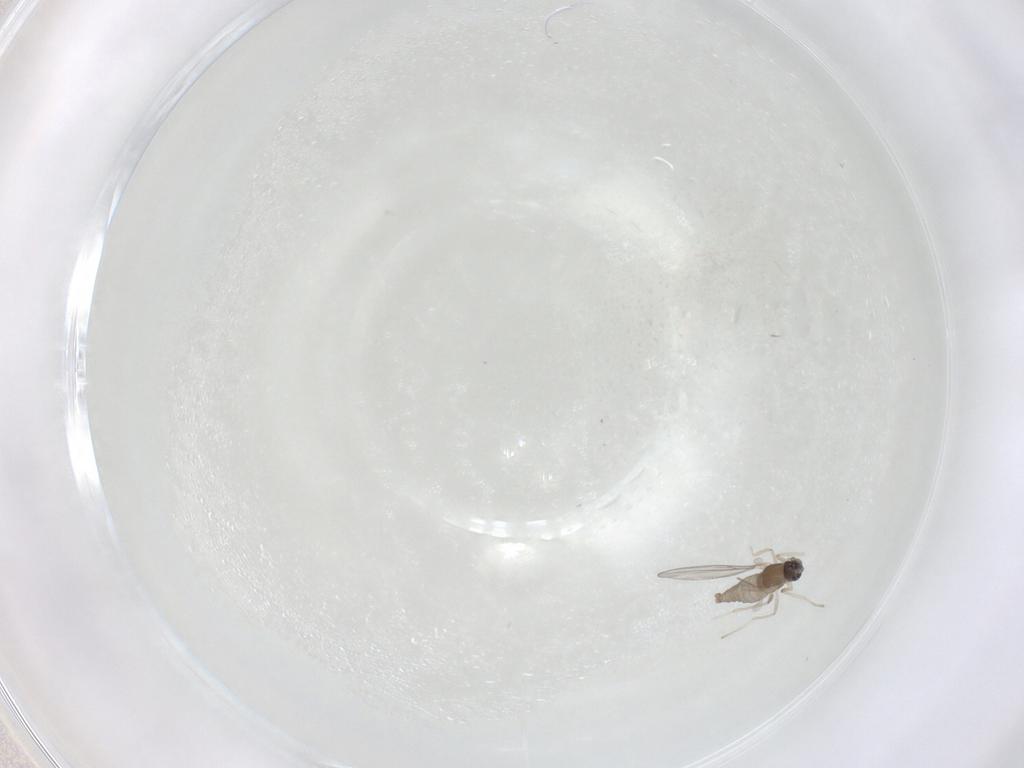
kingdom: Animalia
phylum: Arthropoda
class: Insecta
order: Diptera
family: Cecidomyiidae
